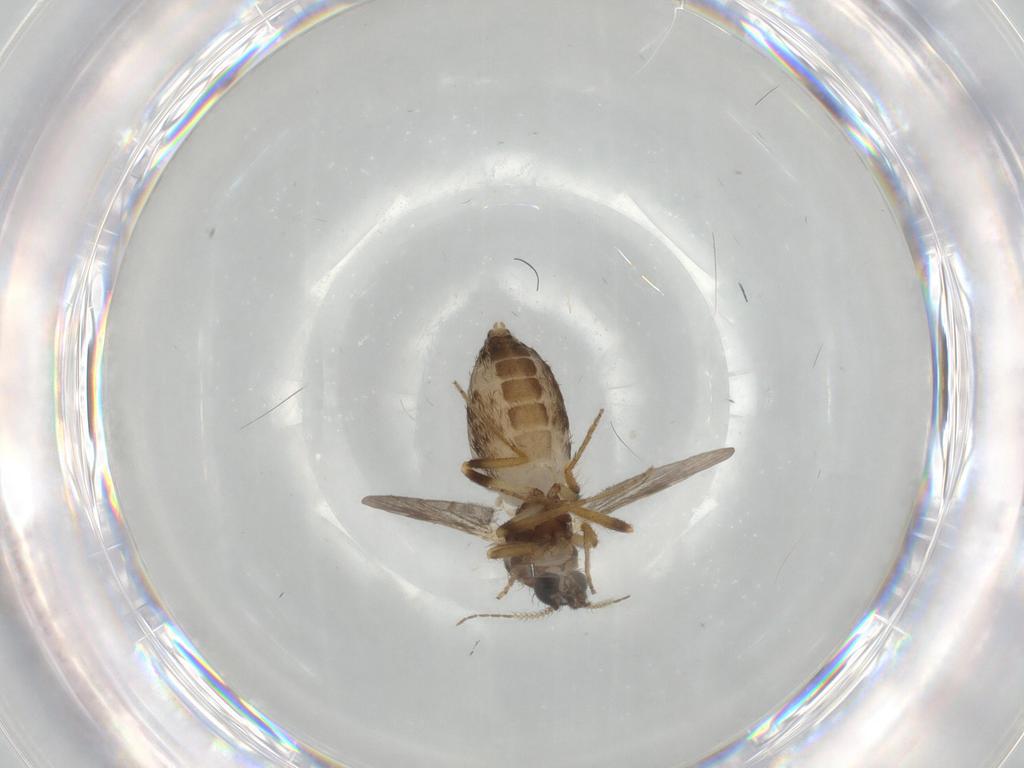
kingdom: Animalia
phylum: Arthropoda
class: Insecta
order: Diptera
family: Ceratopogonidae
